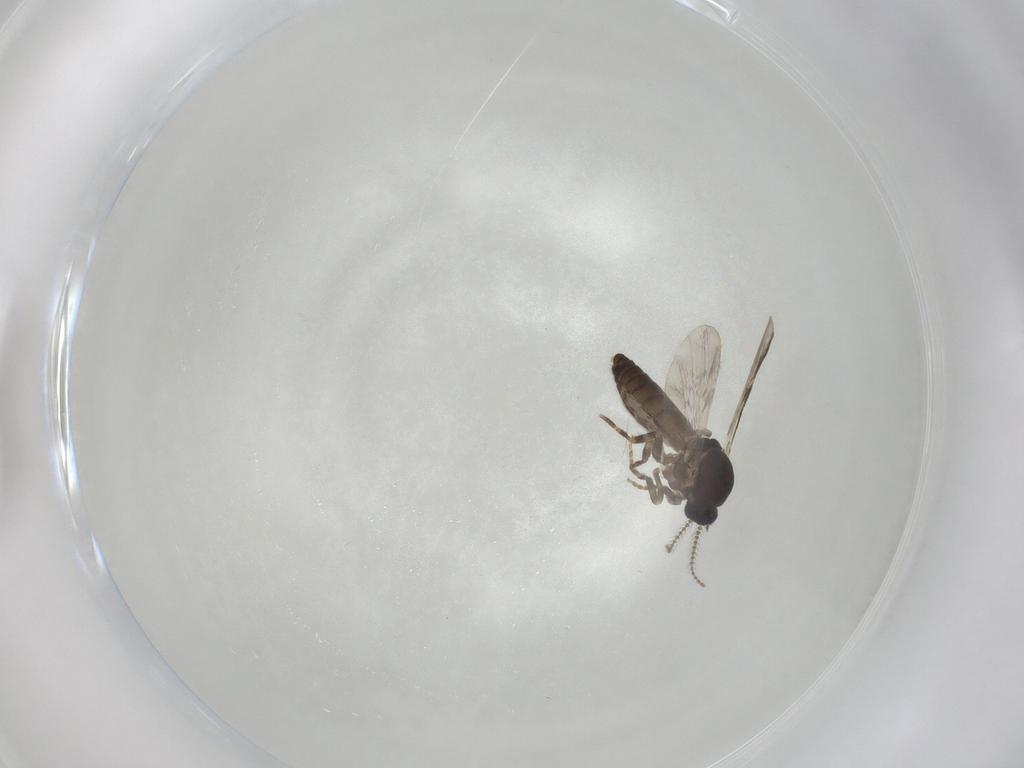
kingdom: Animalia
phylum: Arthropoda
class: Insecta
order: Diptera
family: Ceratopogonidae
